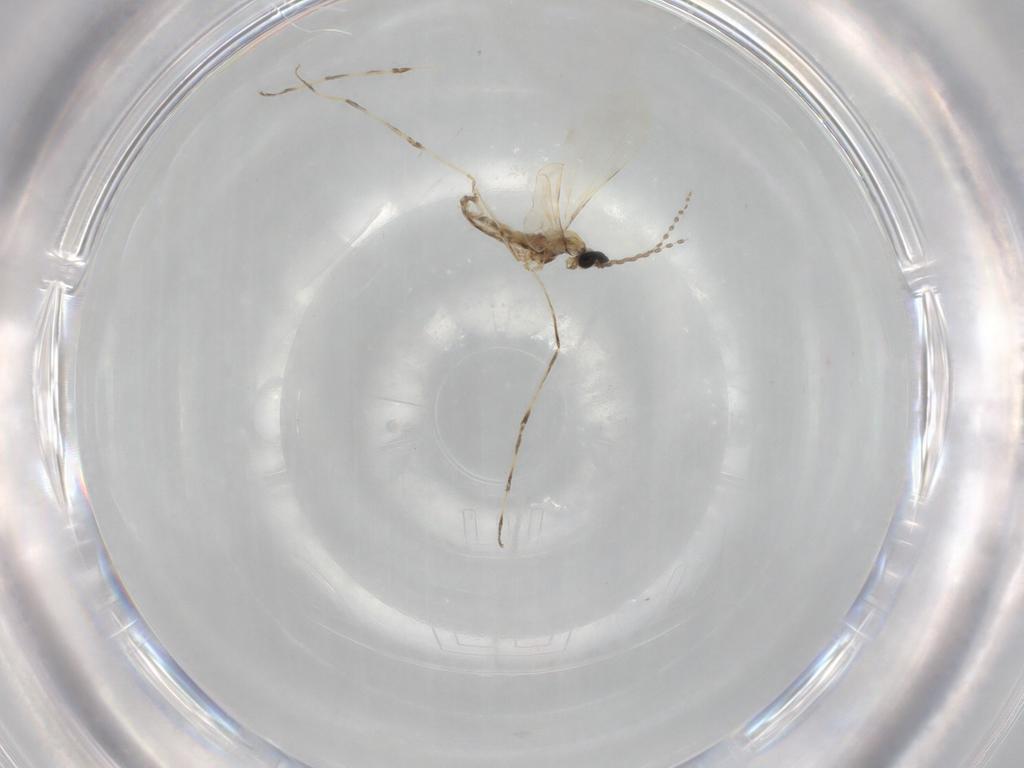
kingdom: Animalia
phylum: Arthropoda
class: Insecta
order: Diptera
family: Cecidomyiidae
